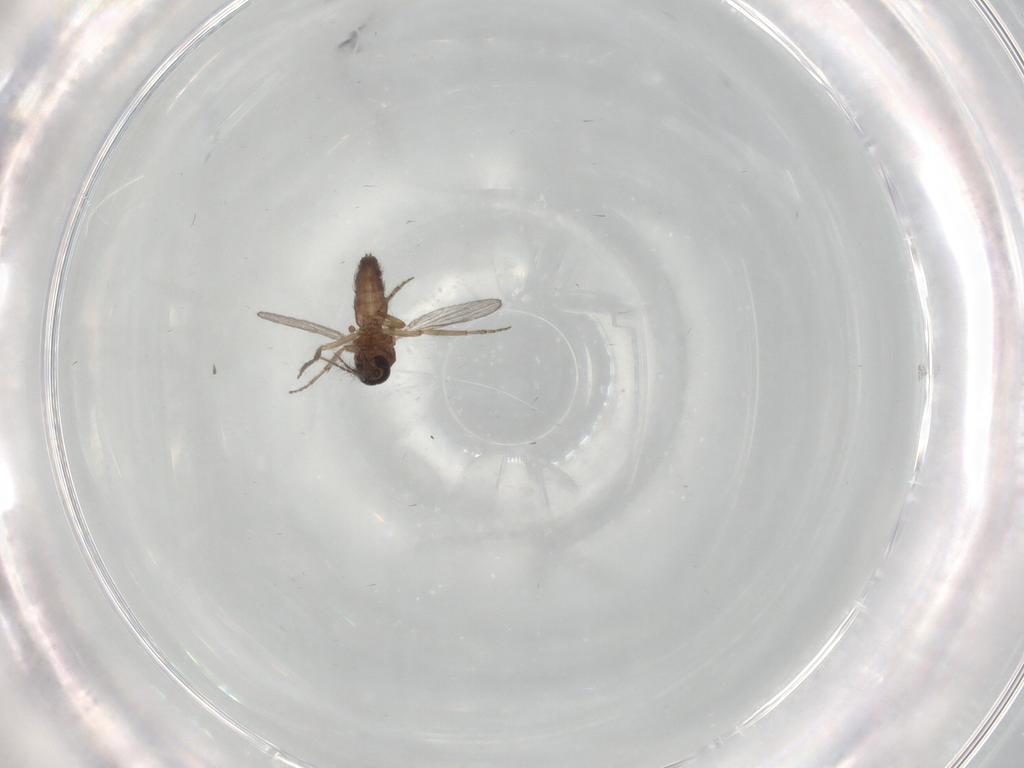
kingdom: Animalia
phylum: Arthropoda
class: Insecta
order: Diptera
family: Ceratopogonidae
